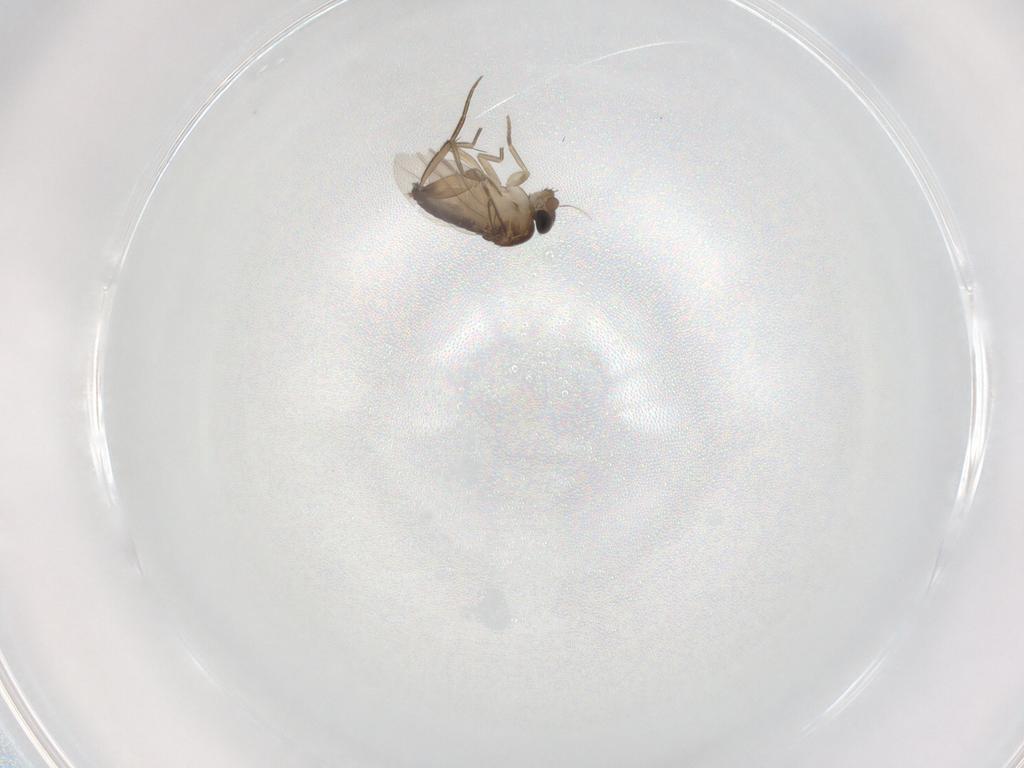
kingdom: Animalia
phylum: Arthropoda
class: Insecta
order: Diptera
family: Phoridae
